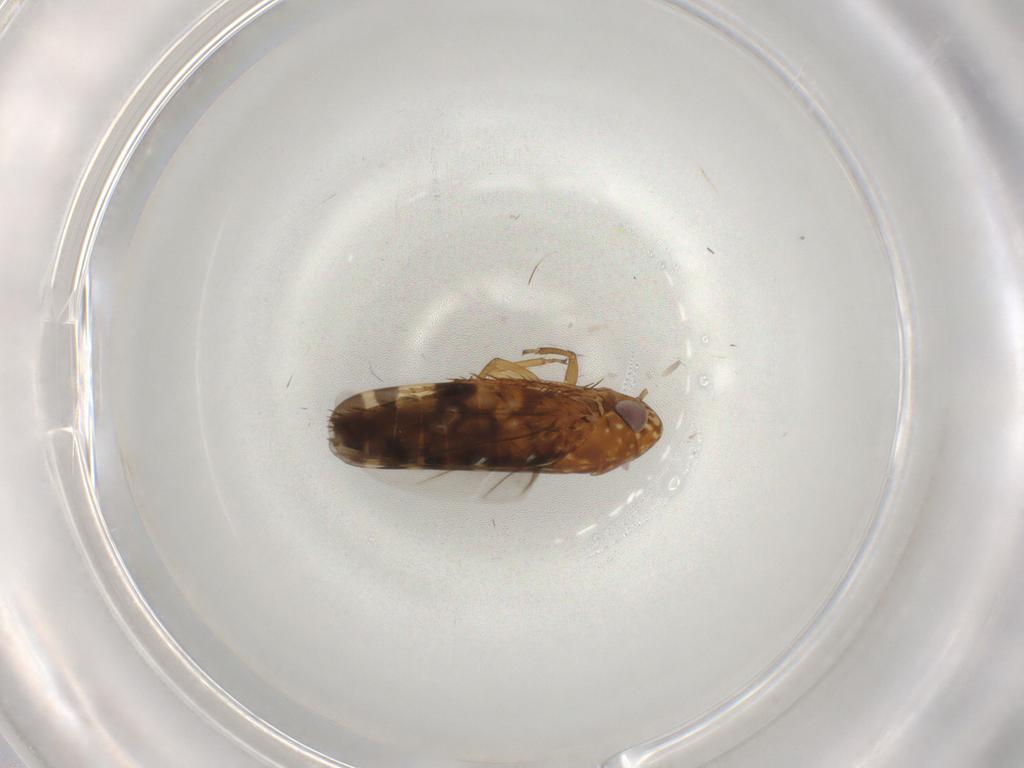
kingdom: Animalia
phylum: Arthropoda
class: Insecta
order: Hemiptera
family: Cicadellidae
